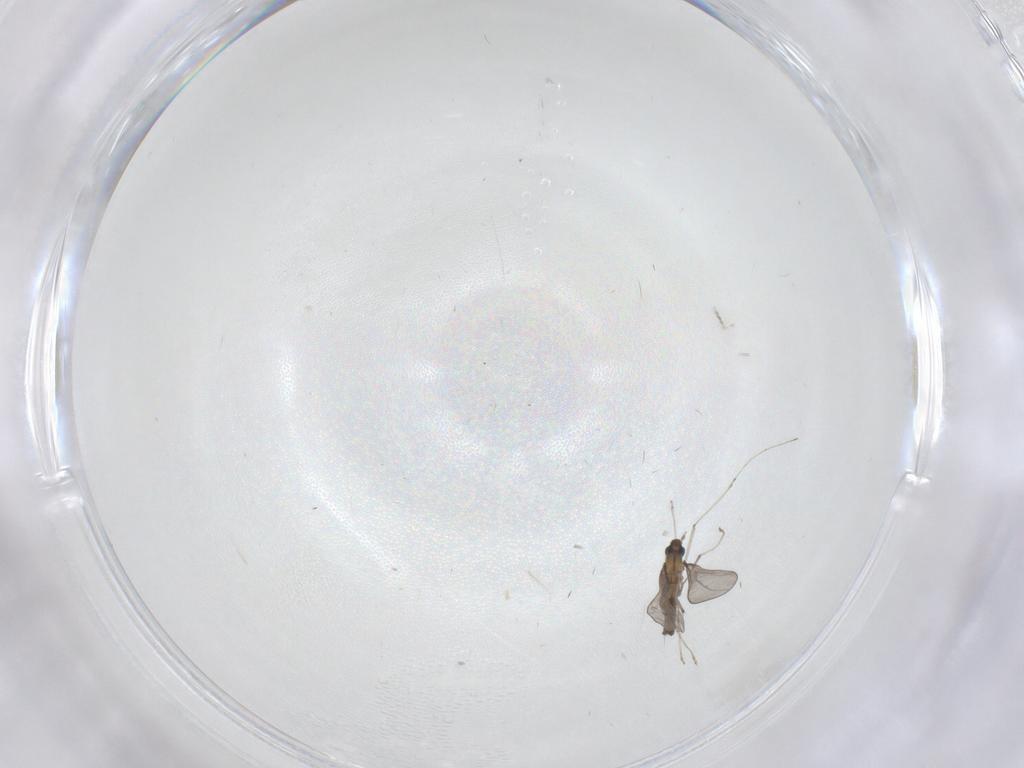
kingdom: Animalia
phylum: Arthropoda
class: Insecta
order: Diptera
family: Cecidomyiidae
